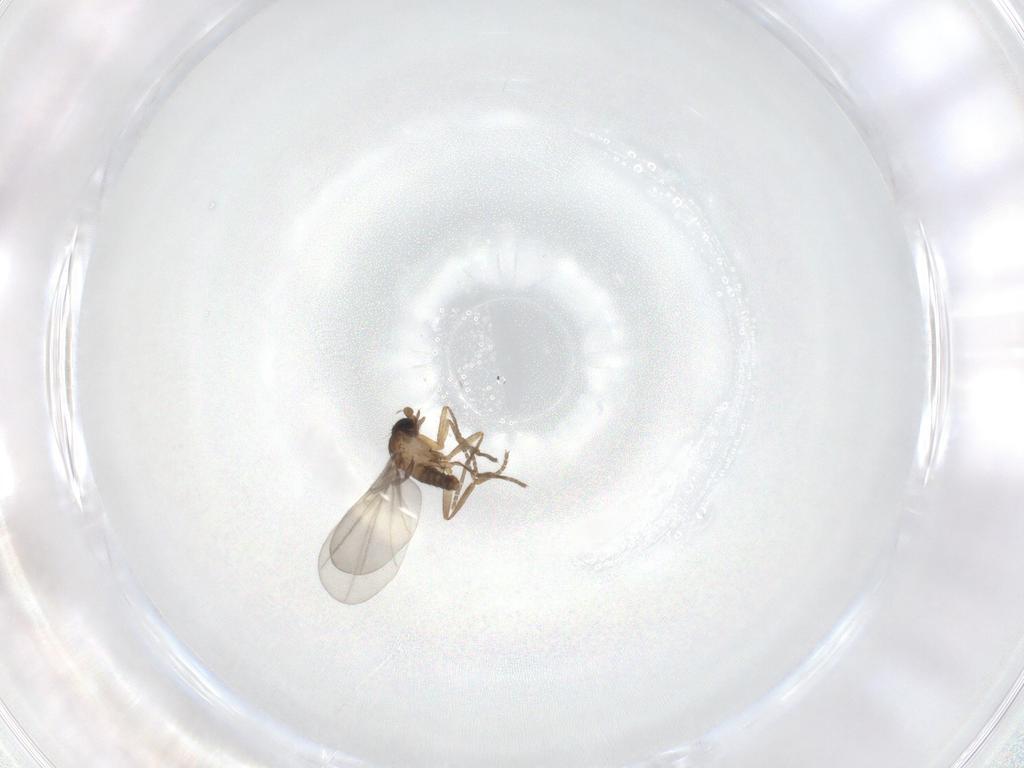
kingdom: Animalia
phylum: Arthropoda
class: Insecta
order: Diptera
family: Phoridae
